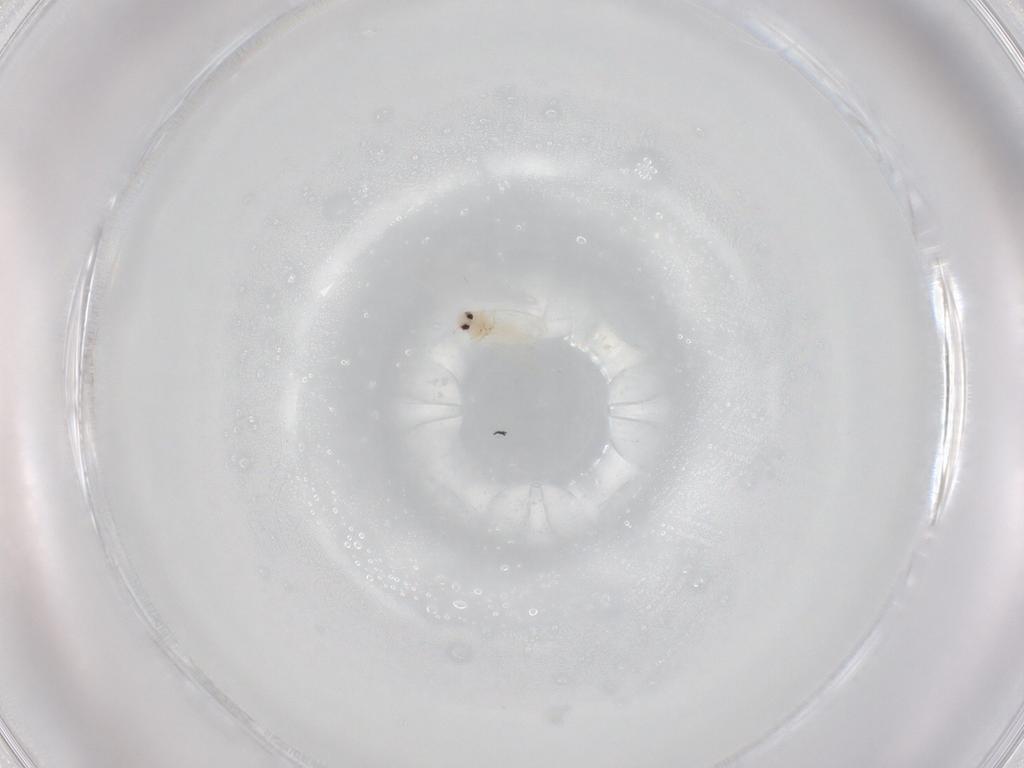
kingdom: Animalia
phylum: Arthropoda
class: Insecta
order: Hemiptera
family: Aleyrodidae
